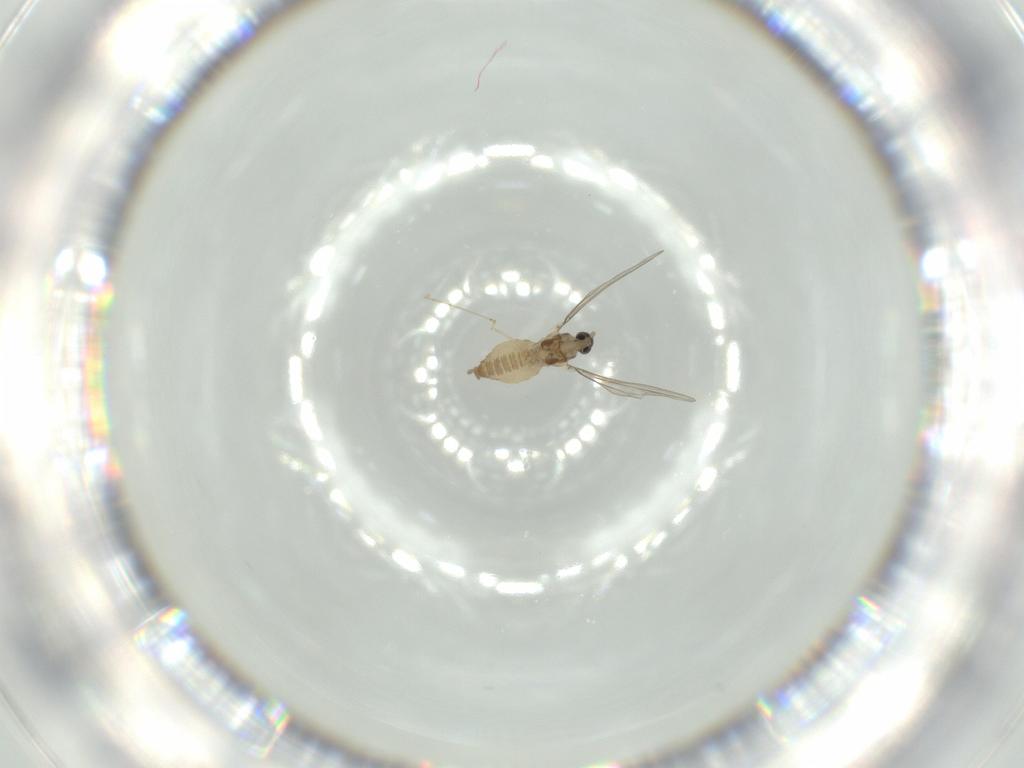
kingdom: Animalia
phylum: Arthropoda
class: Insecta
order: Diptera
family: Cecidomyiidae
